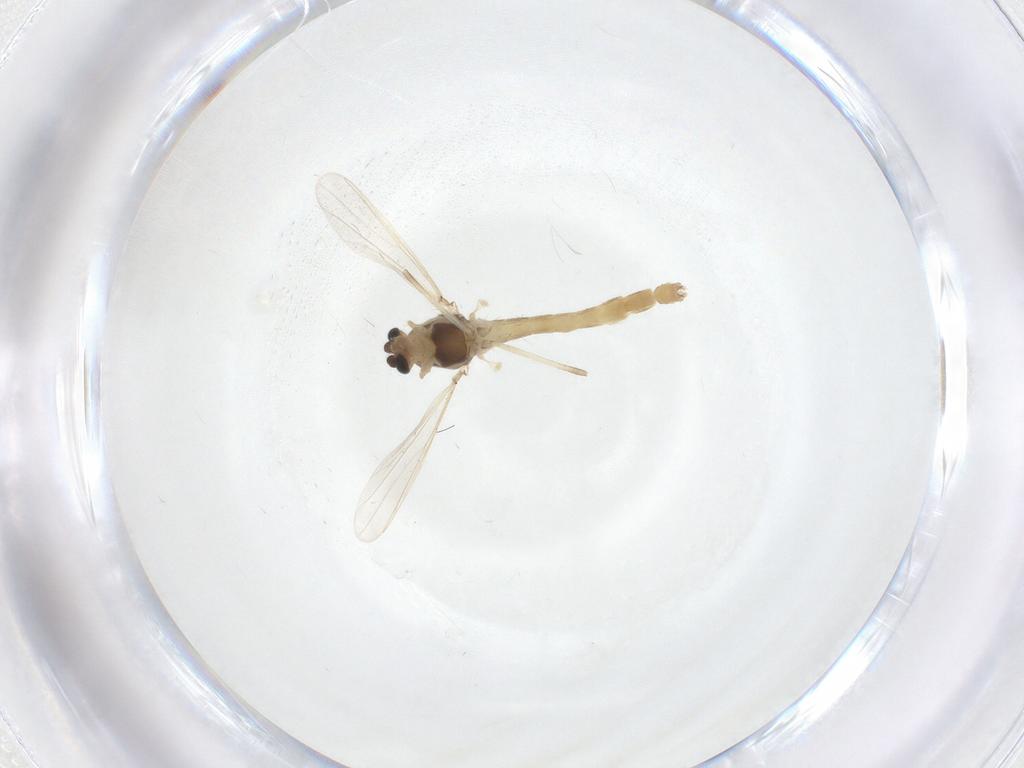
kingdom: Animalia
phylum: Arthropoda
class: Insecta
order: Diptera
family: Chironomidae
